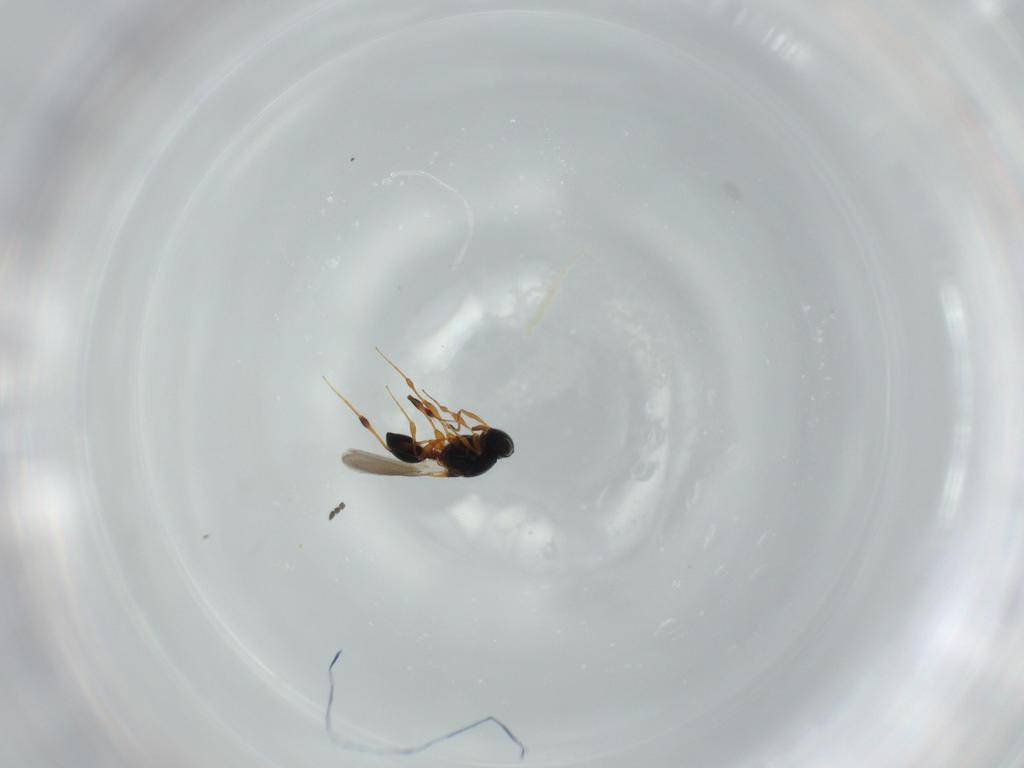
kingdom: Animalia
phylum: Arthropoda
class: Insecta
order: Hymenoptera
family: Platygastridae
